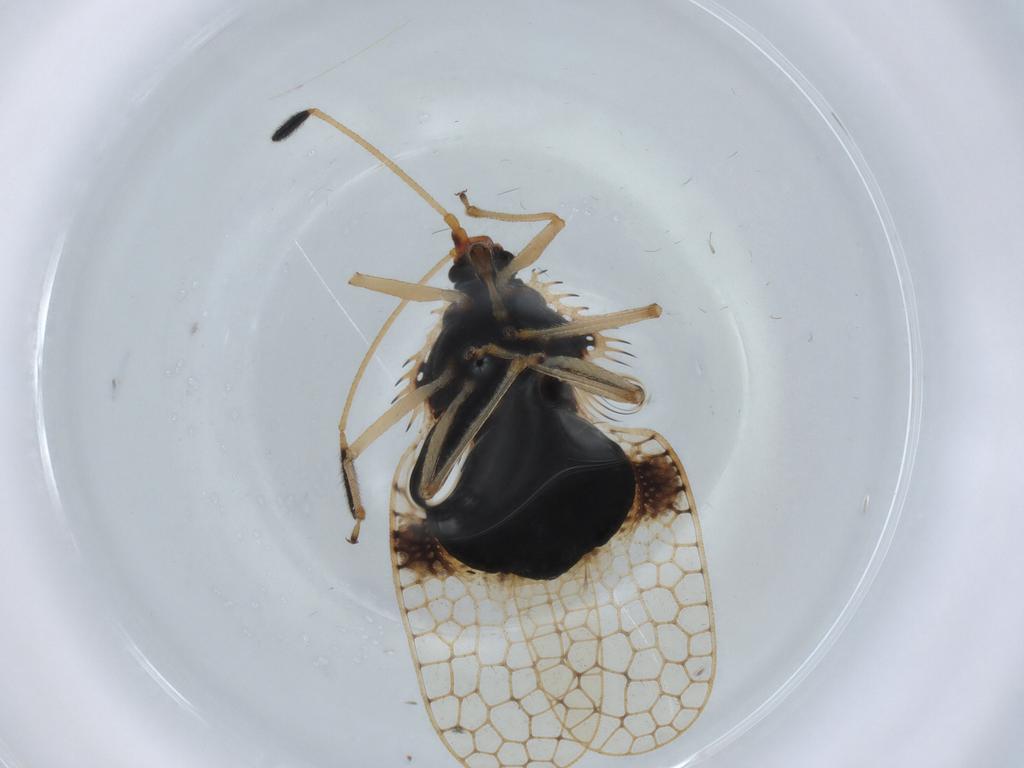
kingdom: Animalia
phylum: Arthropoda
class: Insecta
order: Hemiptera
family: Tingidae
